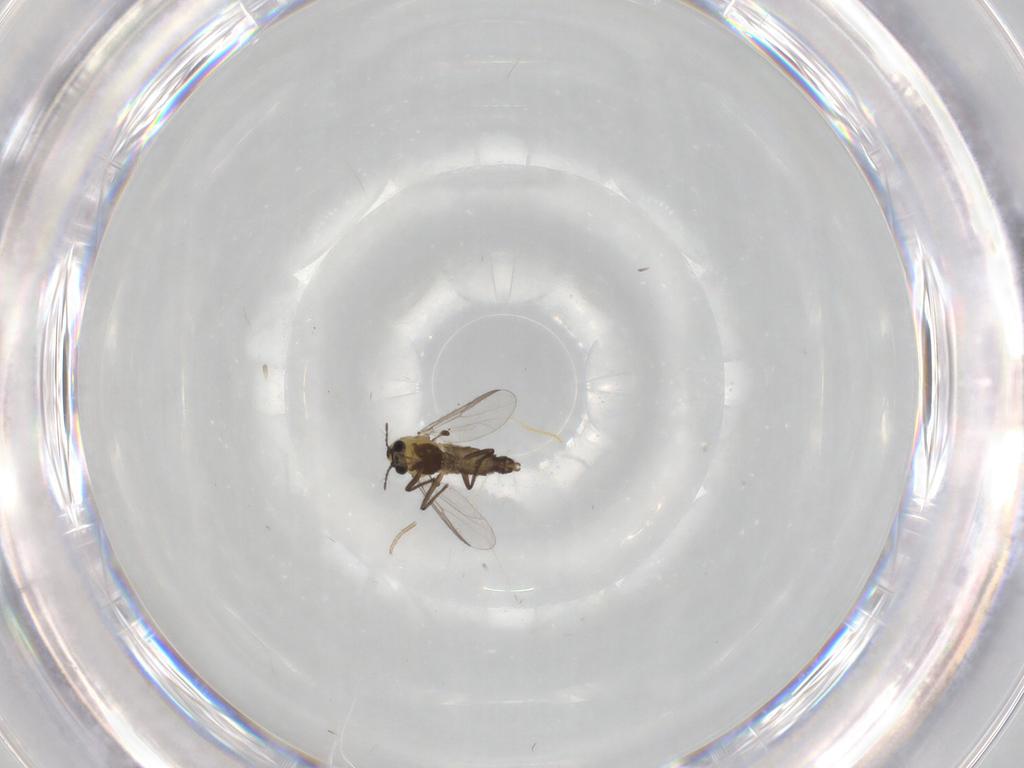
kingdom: Animalia
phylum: Arthropoda
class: Insecta
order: Diptera
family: Chironomidae
